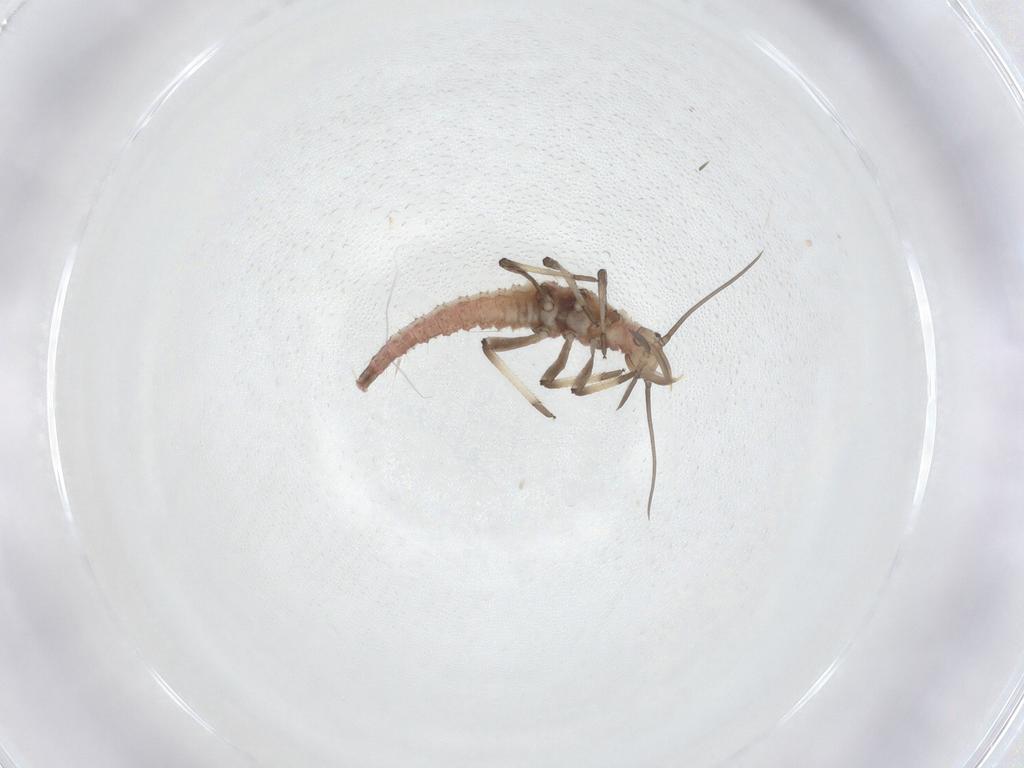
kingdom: Animalia
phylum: Arthropoda
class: Insecta
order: Neuroptera
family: Hemerobiidae
